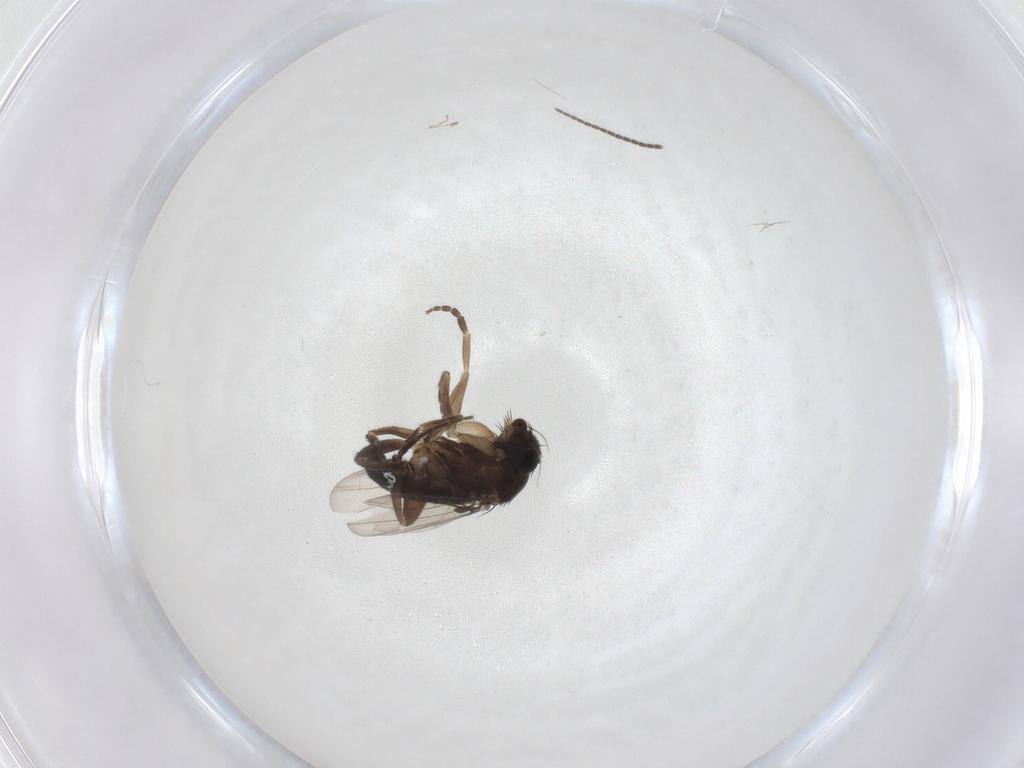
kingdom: Animalia
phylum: Arthropoda
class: Insecta
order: Diptera
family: Phoridae
